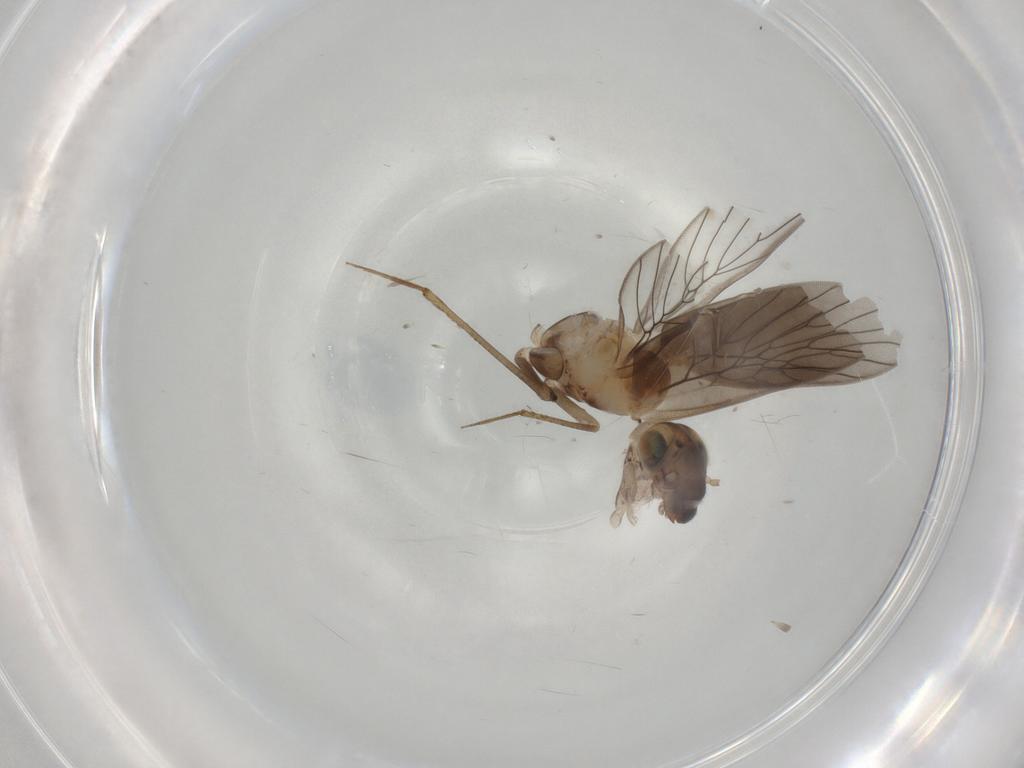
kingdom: Animalia
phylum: Arthropoda
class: Insecta
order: Psocodea
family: Lepidopsocidae
